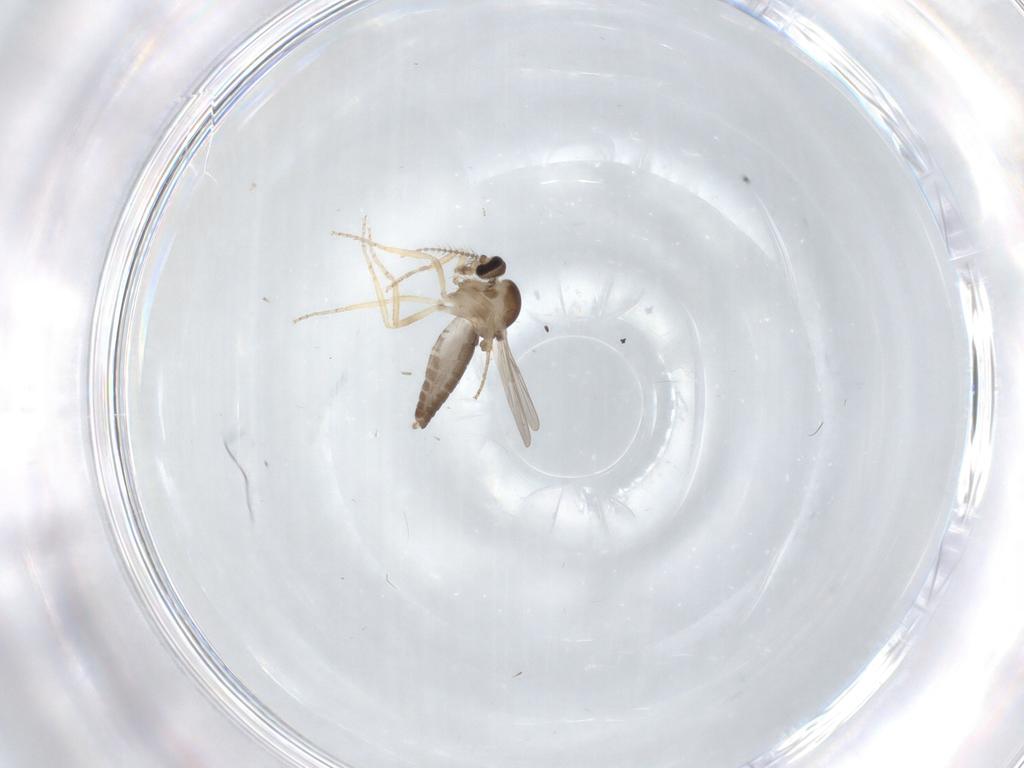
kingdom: Animalia
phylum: Arthropoda
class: Insecta
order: Diptera
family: Ceratopogonidae
